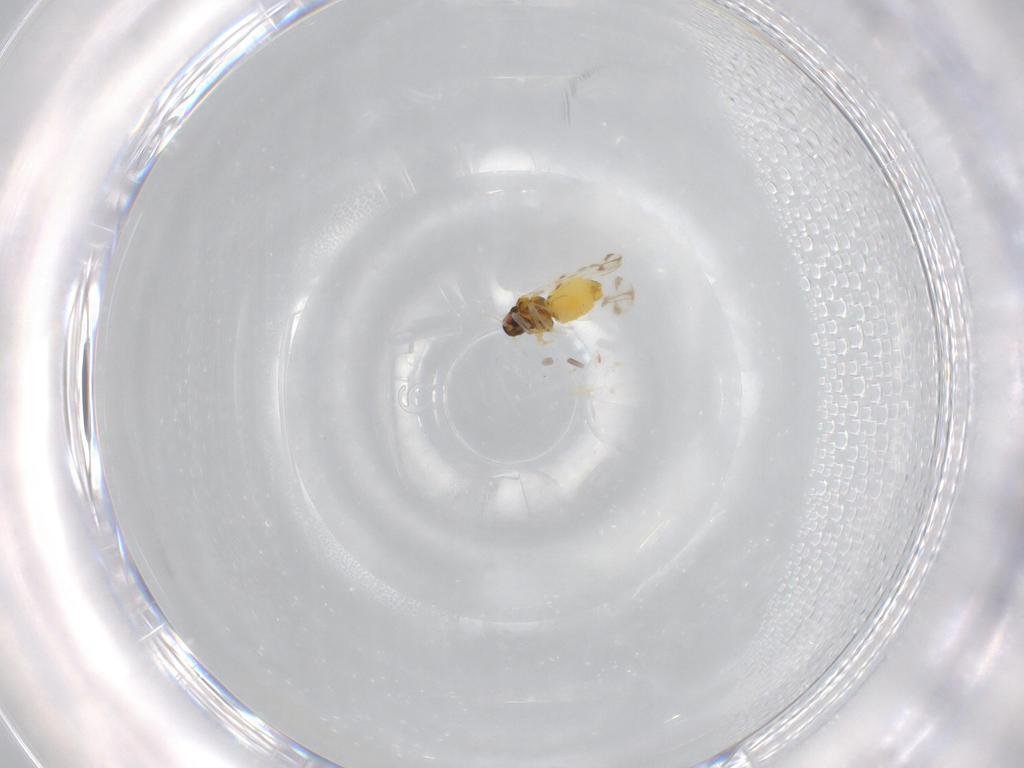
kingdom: Animalia
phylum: Arthropoda
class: Insecta
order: Hemiptera
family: Aleyrodidae
